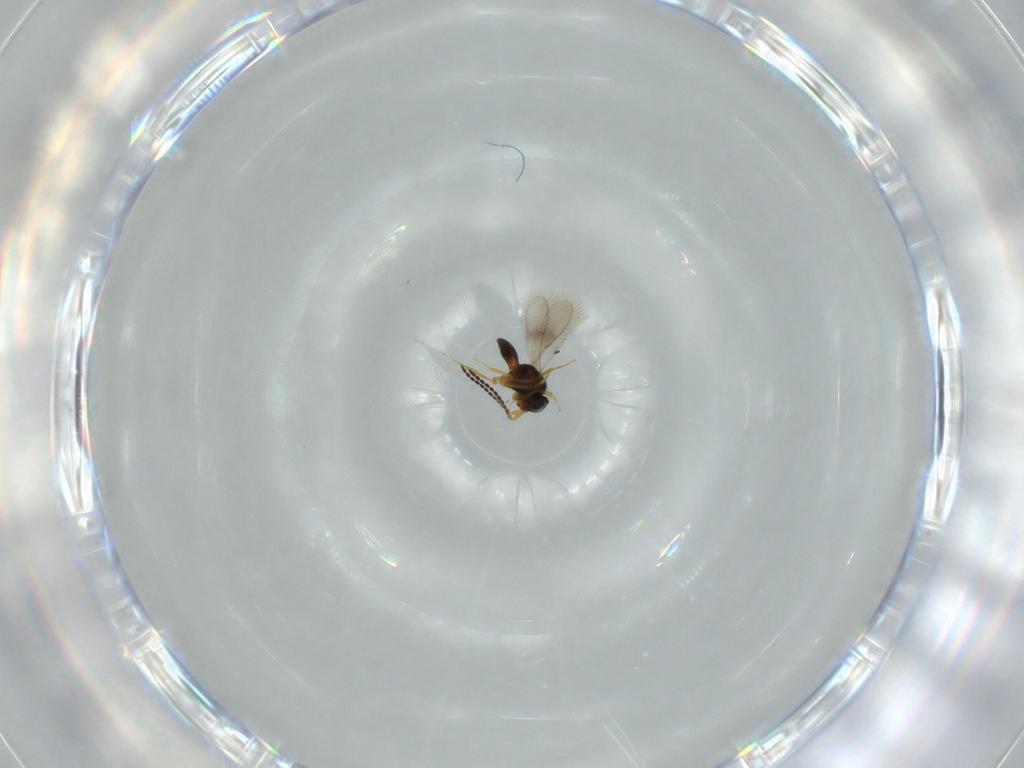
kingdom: Animalia
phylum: Arthropoda
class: Insecta
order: Hymenoptera
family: Scelionidae
